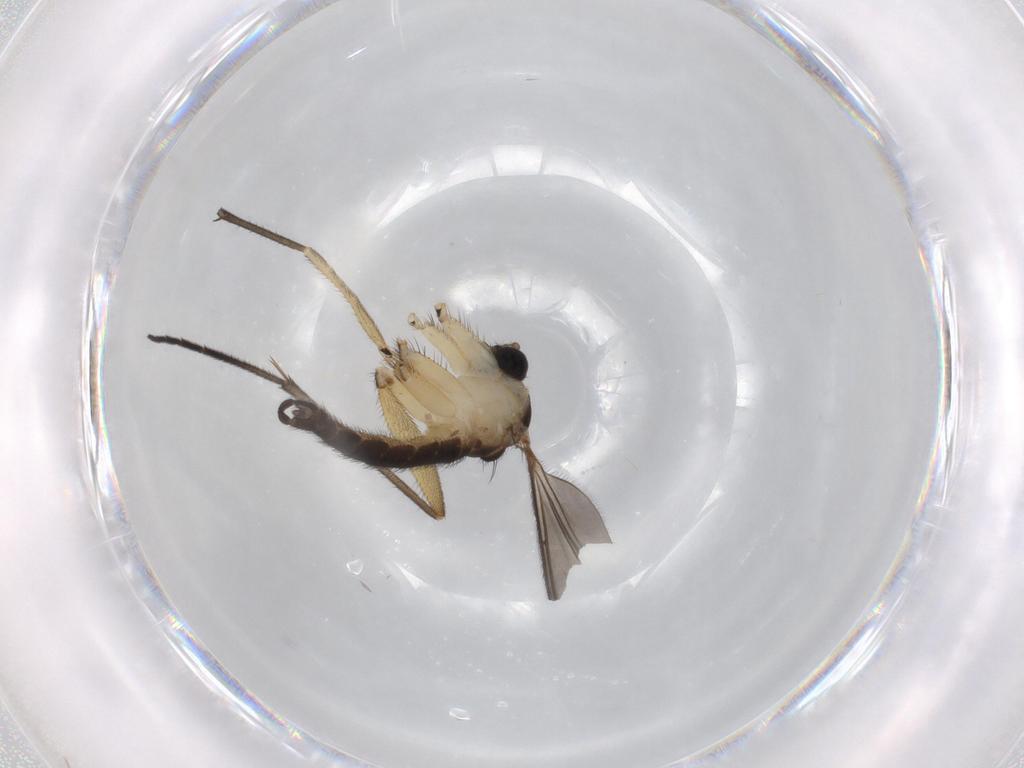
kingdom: Animalia
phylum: Arthropoda
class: Insecta
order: Diptera
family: Sciaridae
